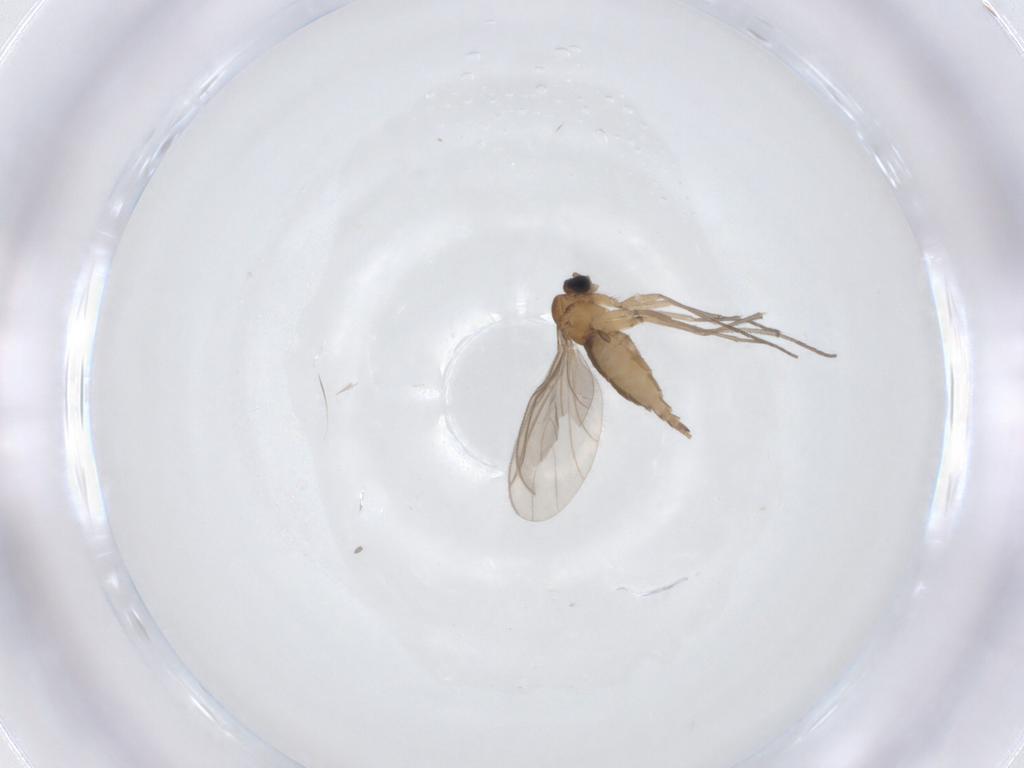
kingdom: Animalia
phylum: Arthropoda
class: Insecta
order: Diptera
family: Sciaridae
